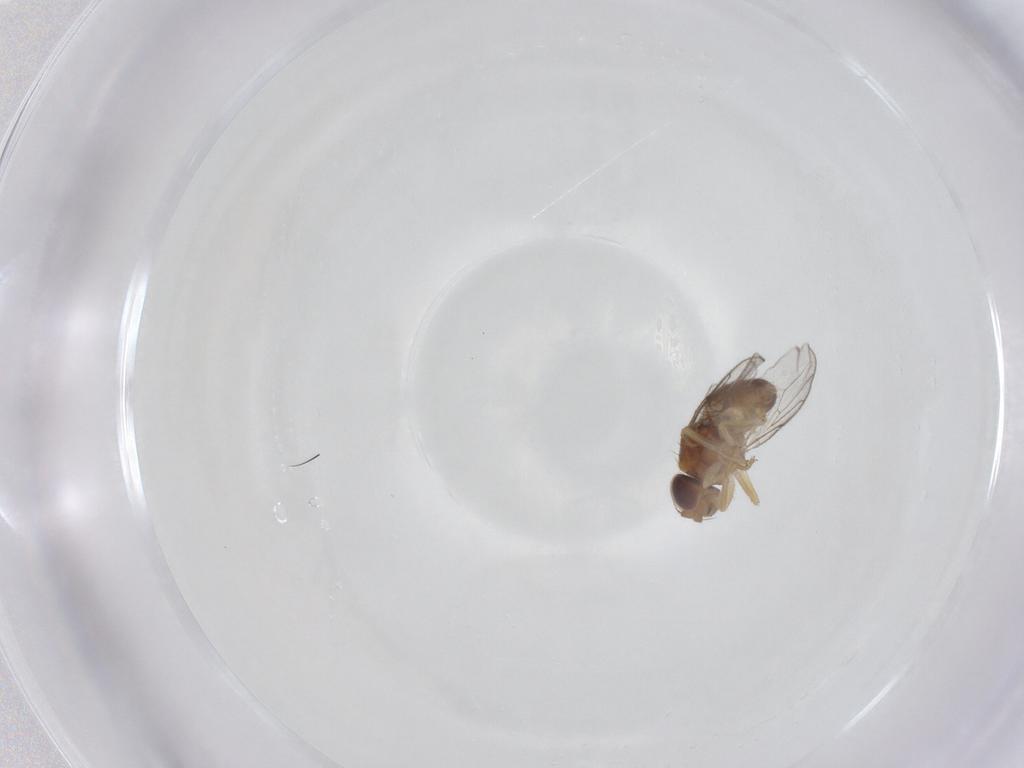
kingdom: Animalia
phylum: Arthropoda
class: Insecta
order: Diptera
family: Chloropidae
